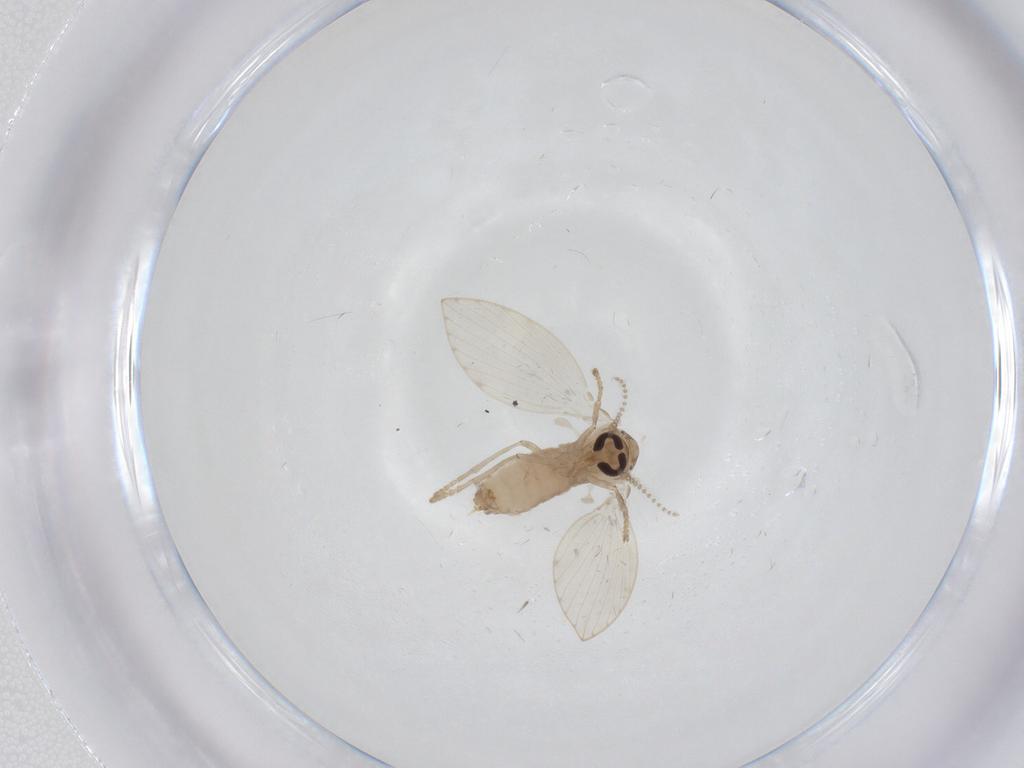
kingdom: Animalia
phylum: Arthropoda
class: Insecta
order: Diptera
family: Psychodidae
